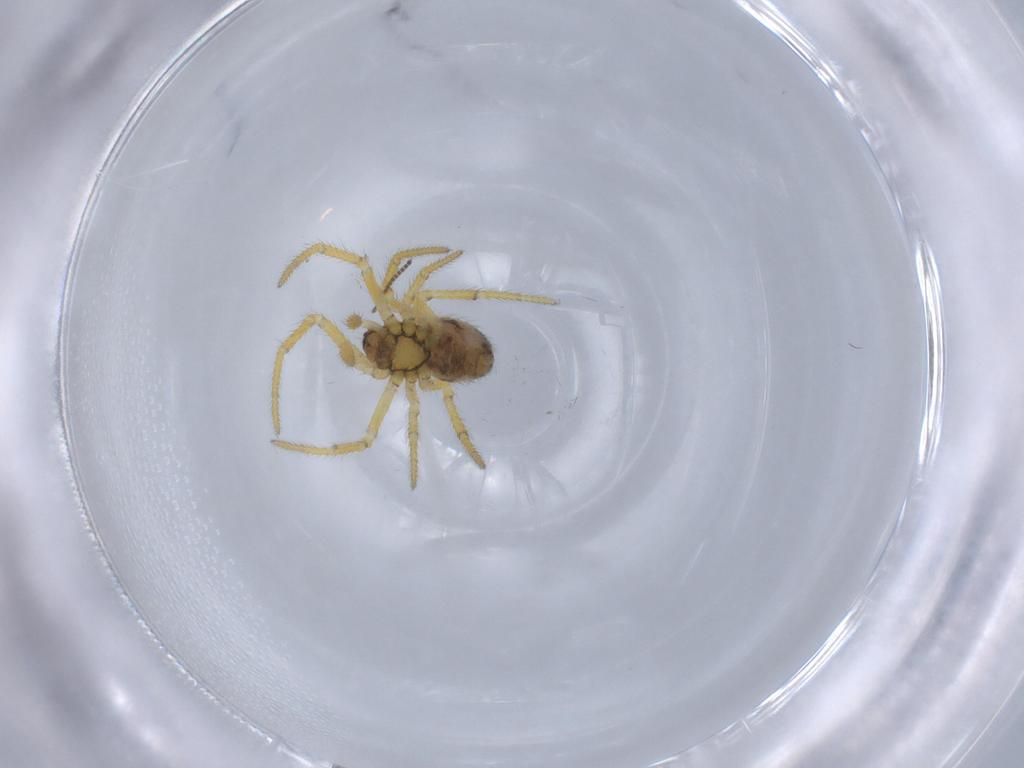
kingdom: Animalia
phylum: Arthropoda
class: Arachnida
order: Araneae
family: Theridiidae
